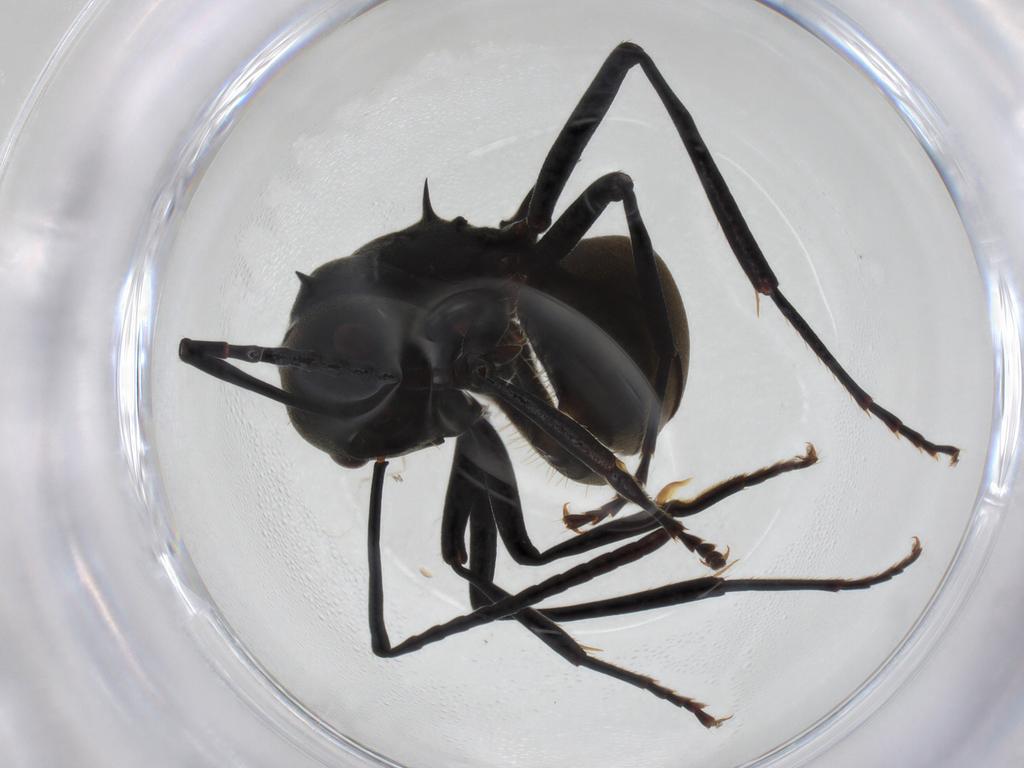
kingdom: Animalia
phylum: Arthropoda
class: Insecta
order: Hymenoptera
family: Formicidae
